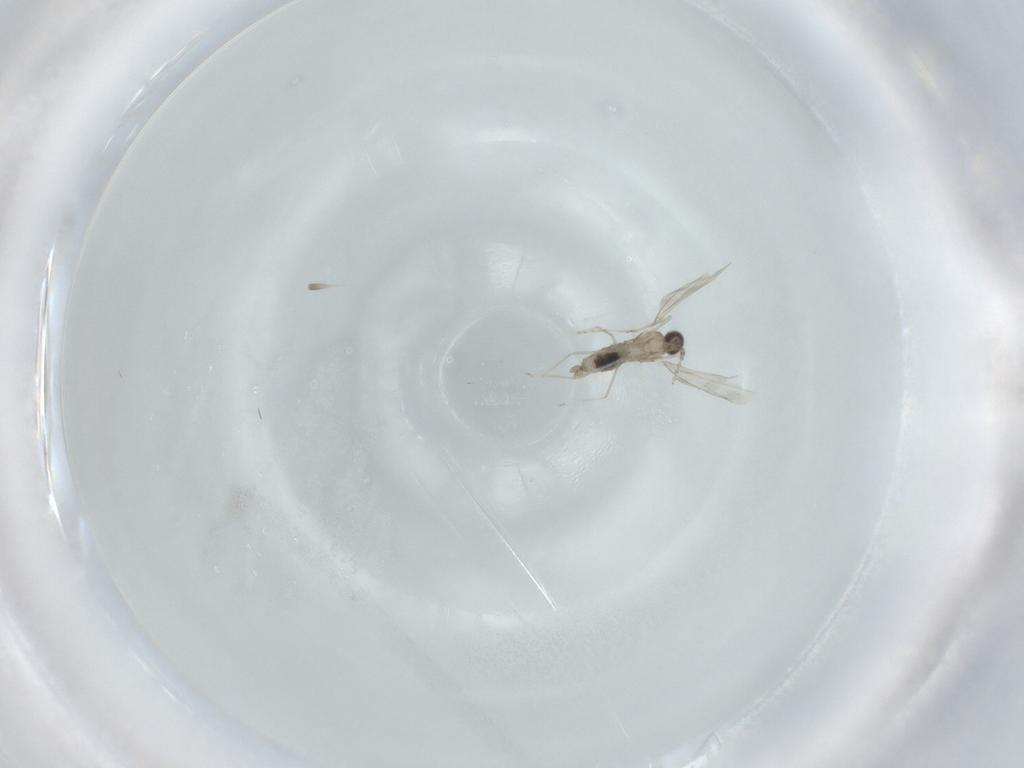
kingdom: Animalia
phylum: Arthropoda
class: Insecta
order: Diptera
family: Cecidomyiidae
